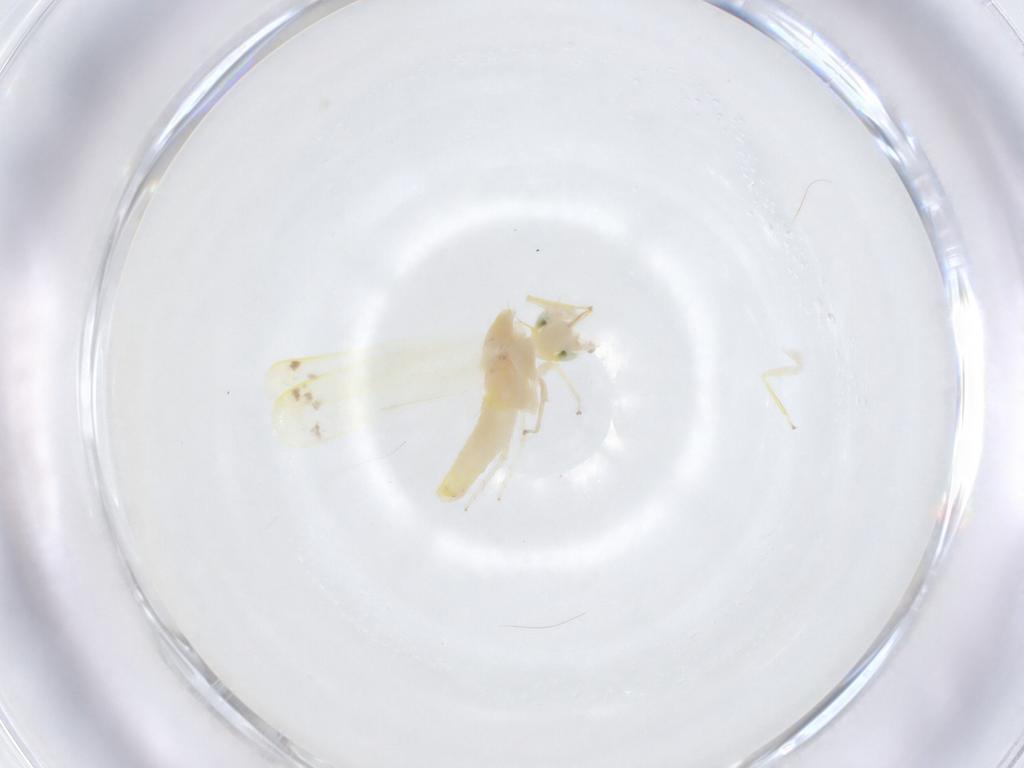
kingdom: Animalia
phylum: Arthropoda
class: Insecta
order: Hemiptera
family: Cicadellidae
